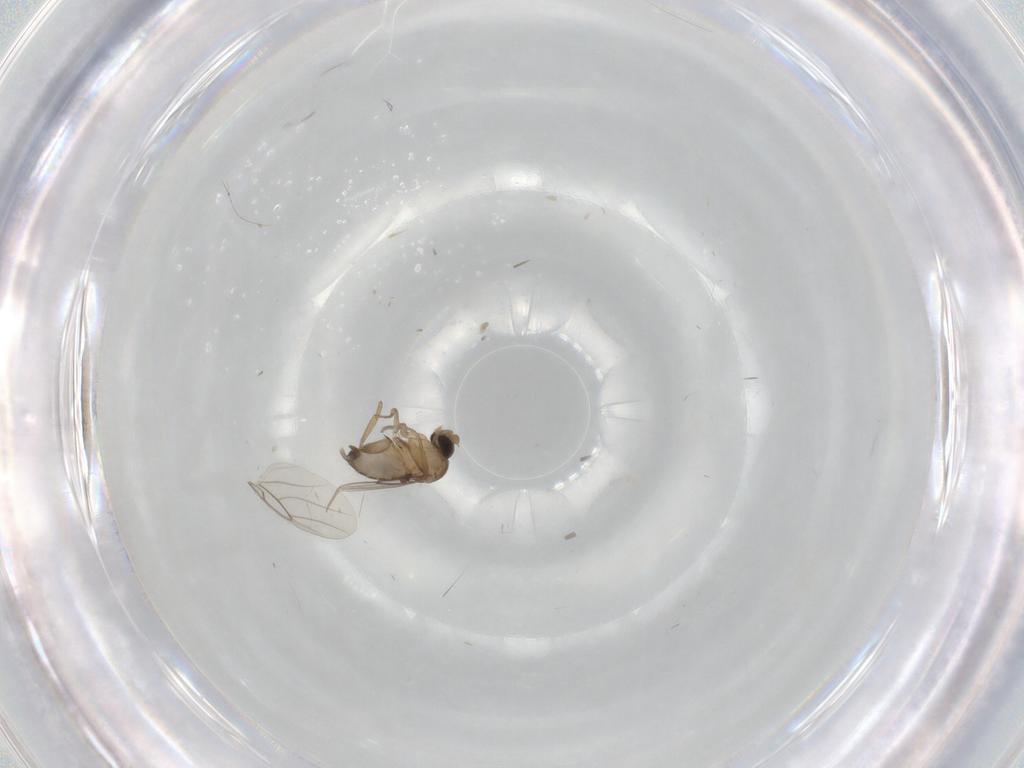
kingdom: Animalia
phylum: Arthropoda
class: Insecta
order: Diptera
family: Phoridae
